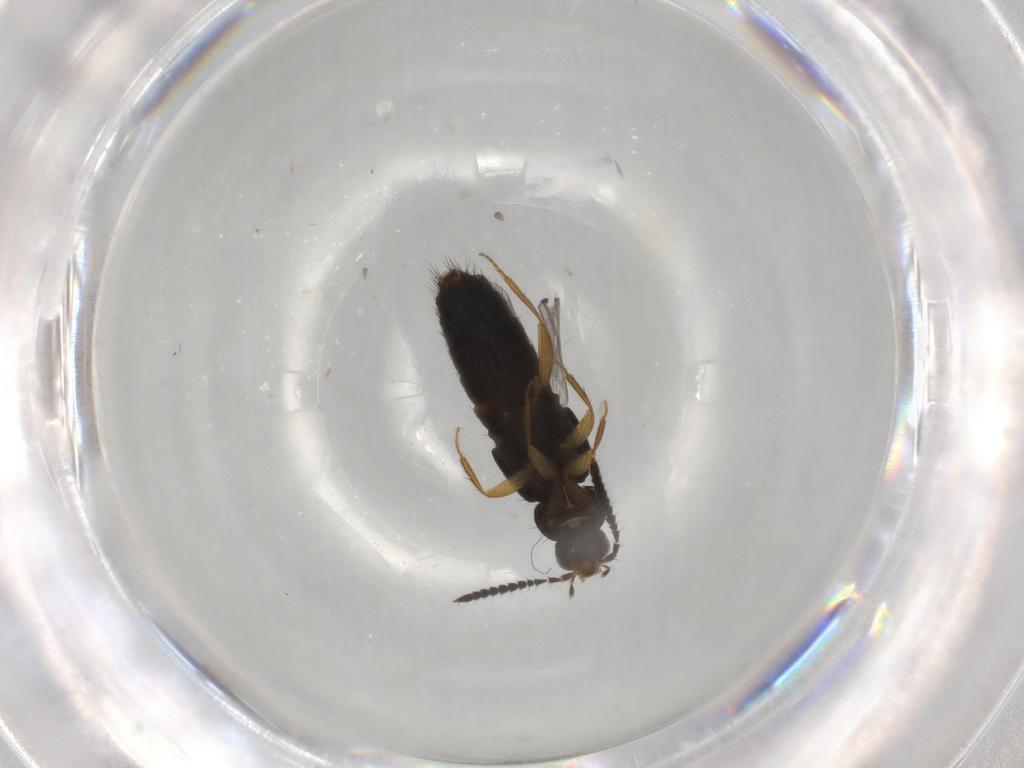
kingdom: Animalia
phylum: Arthropoda
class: Insecta
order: Coleoptera
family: Staphylinidae
